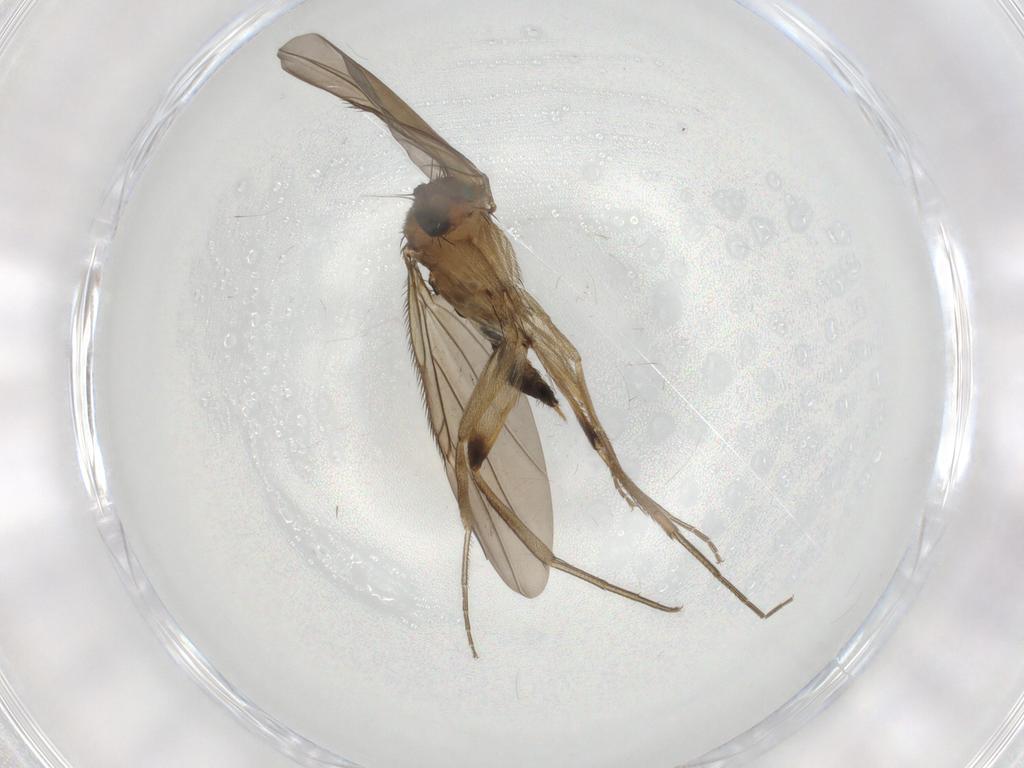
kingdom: Animalia
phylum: Arthropoda
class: Insecta
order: Diptera
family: Phoridae
